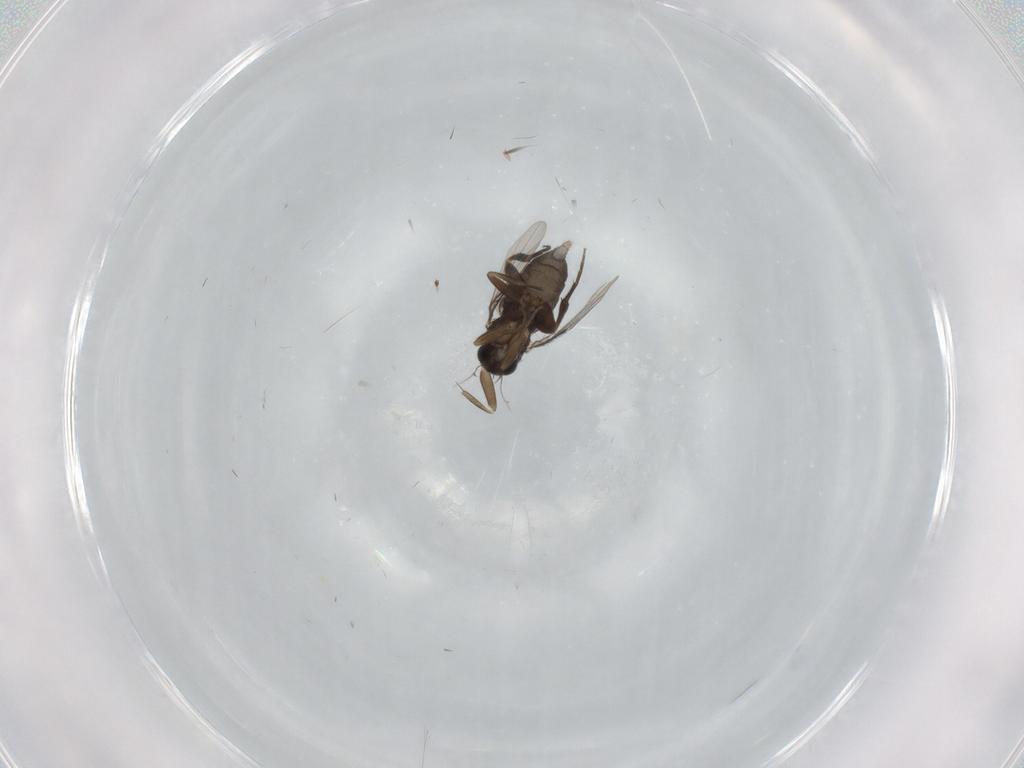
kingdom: Animalia
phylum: Arthropoda
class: Insecta
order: Diptera
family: Phoridae
